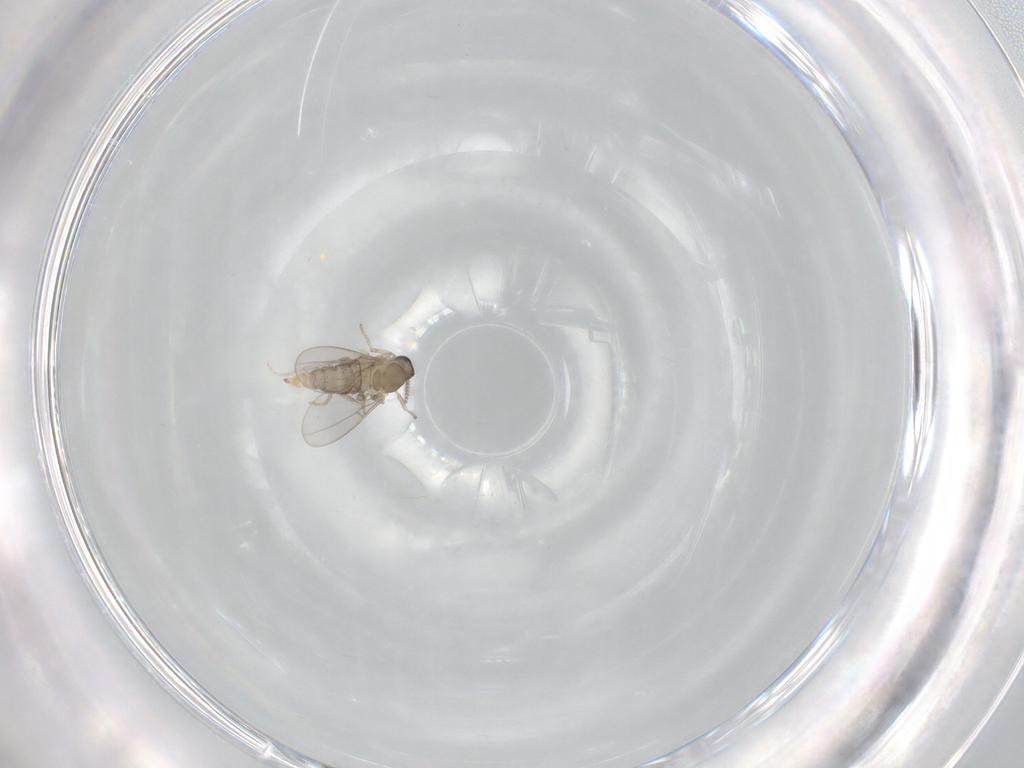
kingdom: Animalia
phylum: Arthropoda
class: Insecta
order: Diptera
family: Cecidomyiidae
